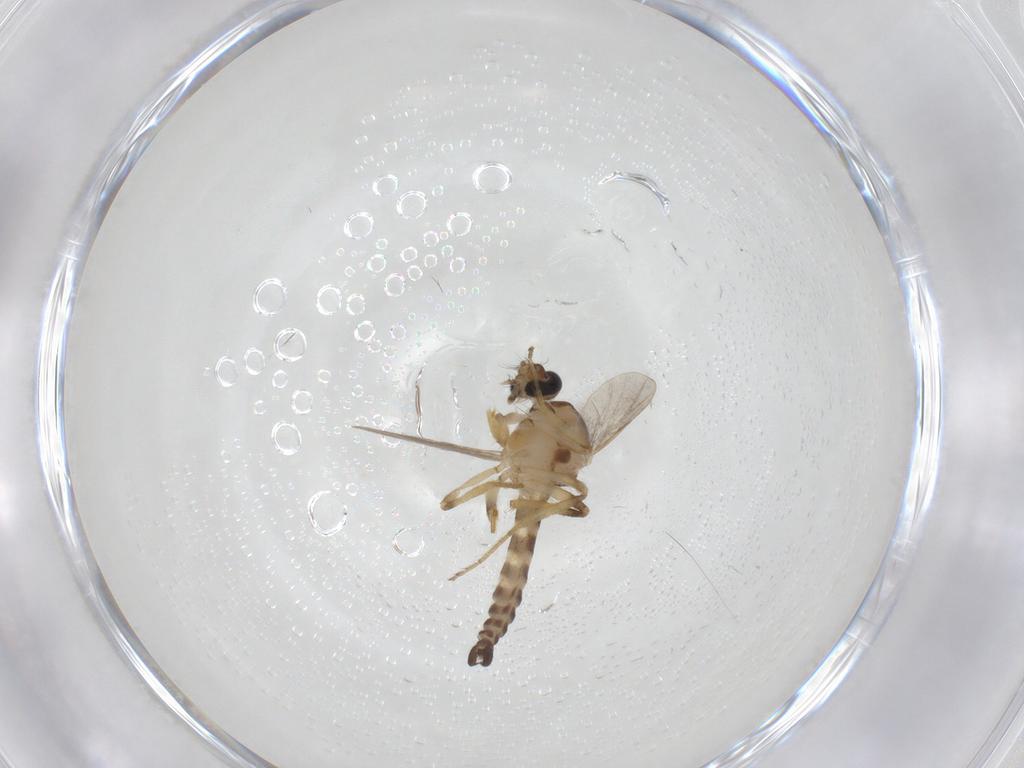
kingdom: Animalia
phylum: Arthropoda
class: Insecta
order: Diptera
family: Ceratopogonidae
